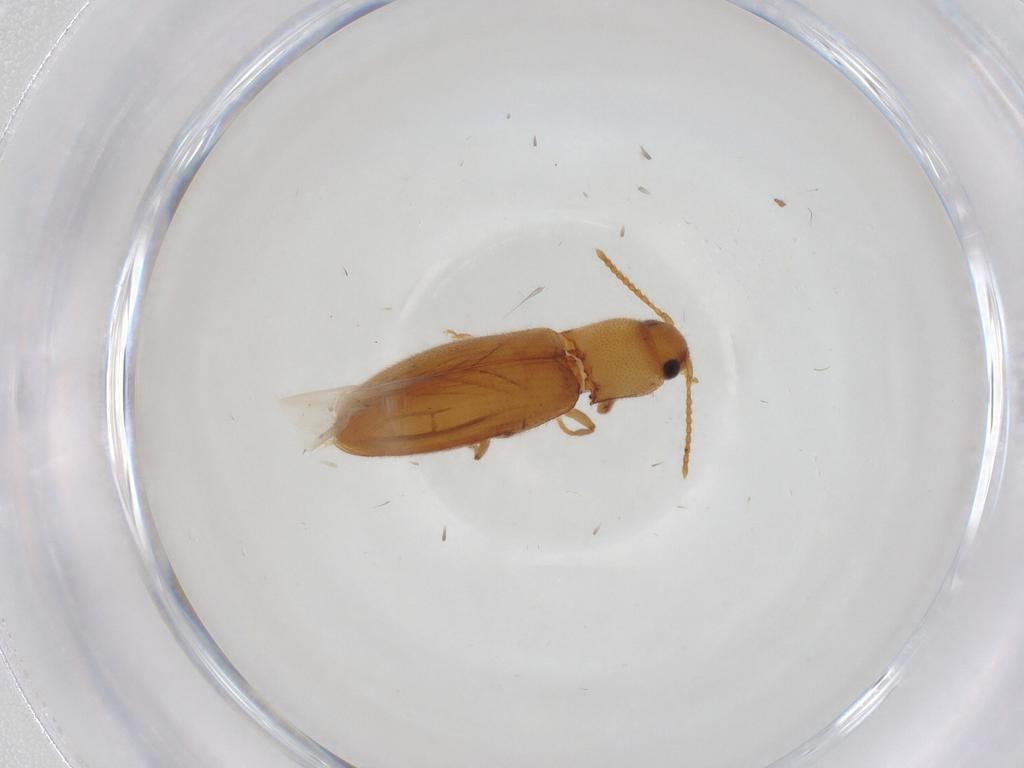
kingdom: Animalia
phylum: Arthropoda
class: Insecta
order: Coleoptera
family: Elateridae
